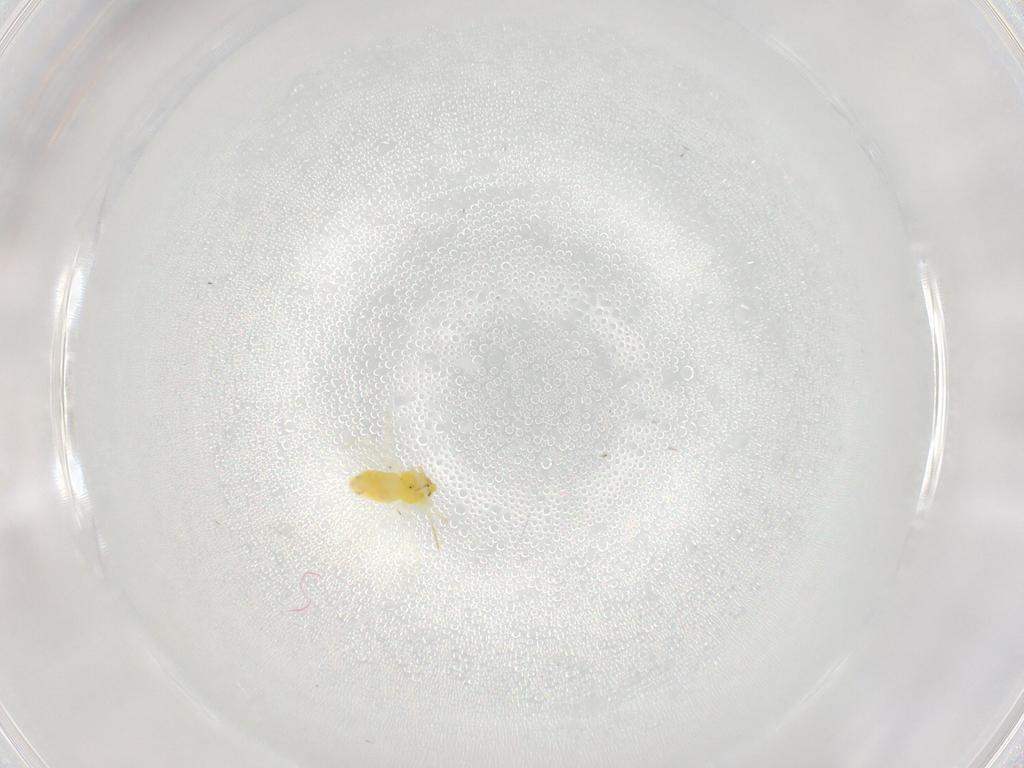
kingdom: Animalia
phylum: Arthropoda
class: Insecta
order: Hemiptera
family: Aleyrodidae
